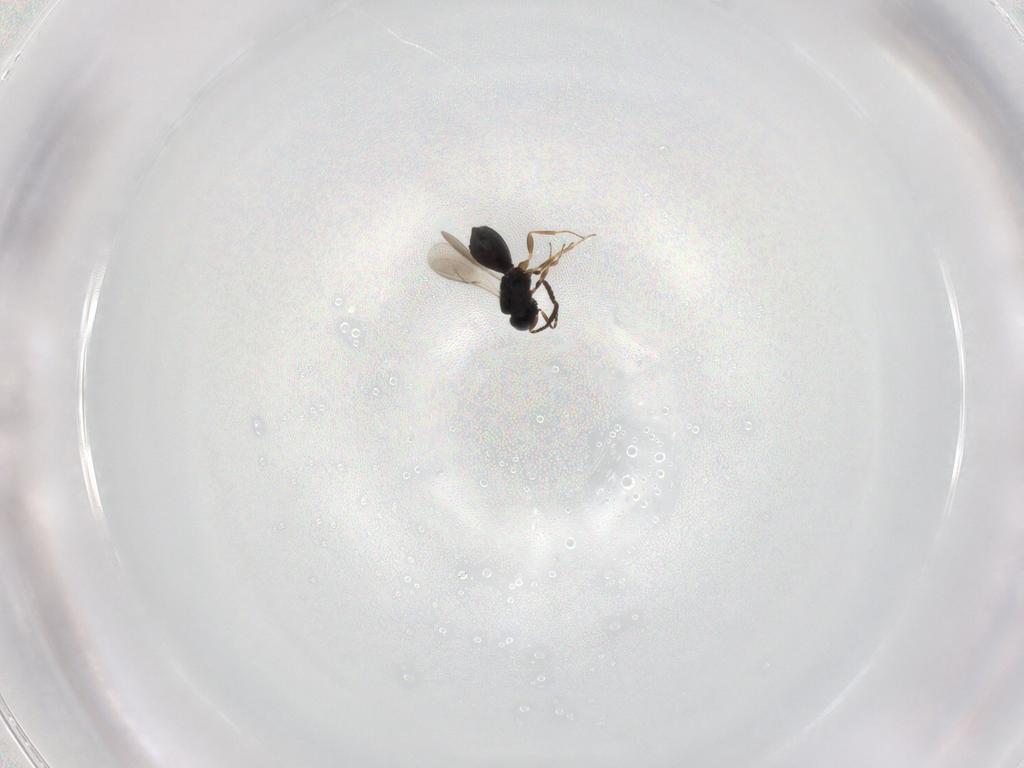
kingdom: Animalia
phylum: Arthropoda
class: Insecta
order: Hymenoptera
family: Scelionidae
